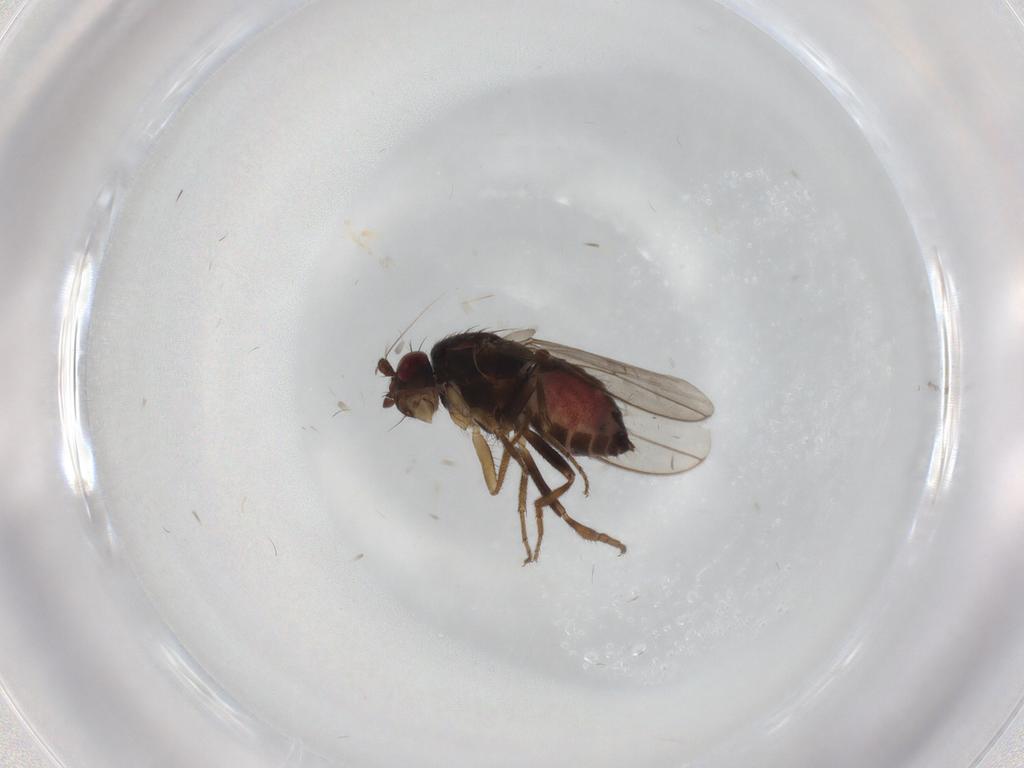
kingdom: Animalia
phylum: Arthropoda
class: Insecta
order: Diptera
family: Sphaeroceridae
